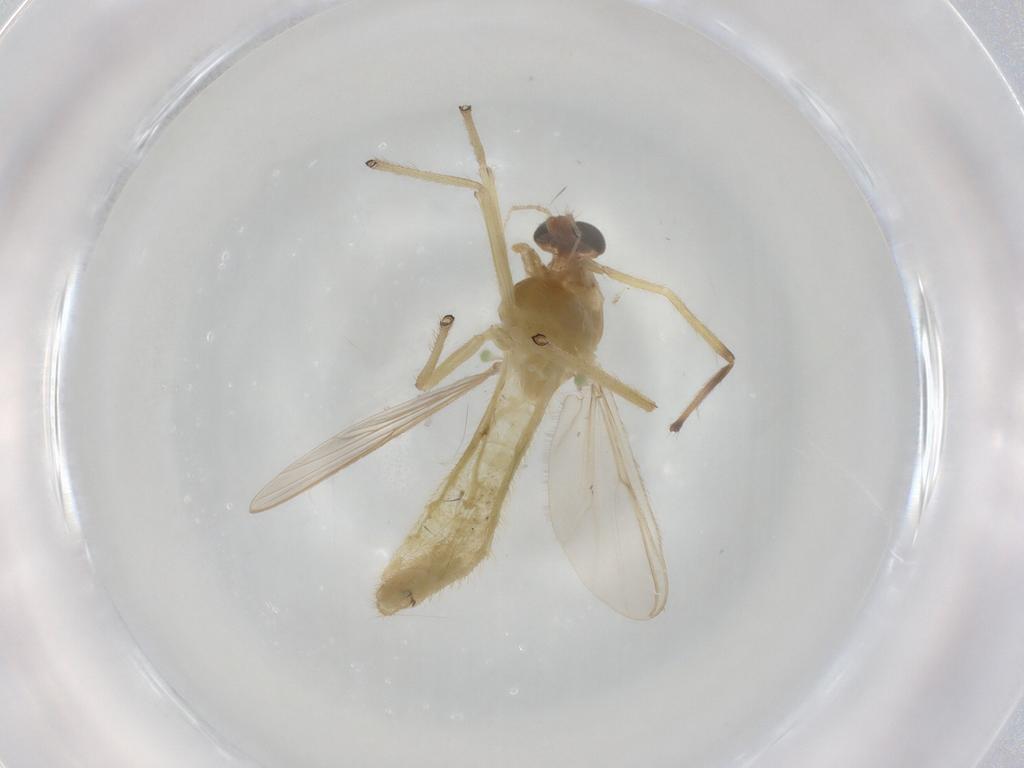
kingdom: Animalia
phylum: Arthropoda
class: Insecta
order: Diptera
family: Chironomidae
